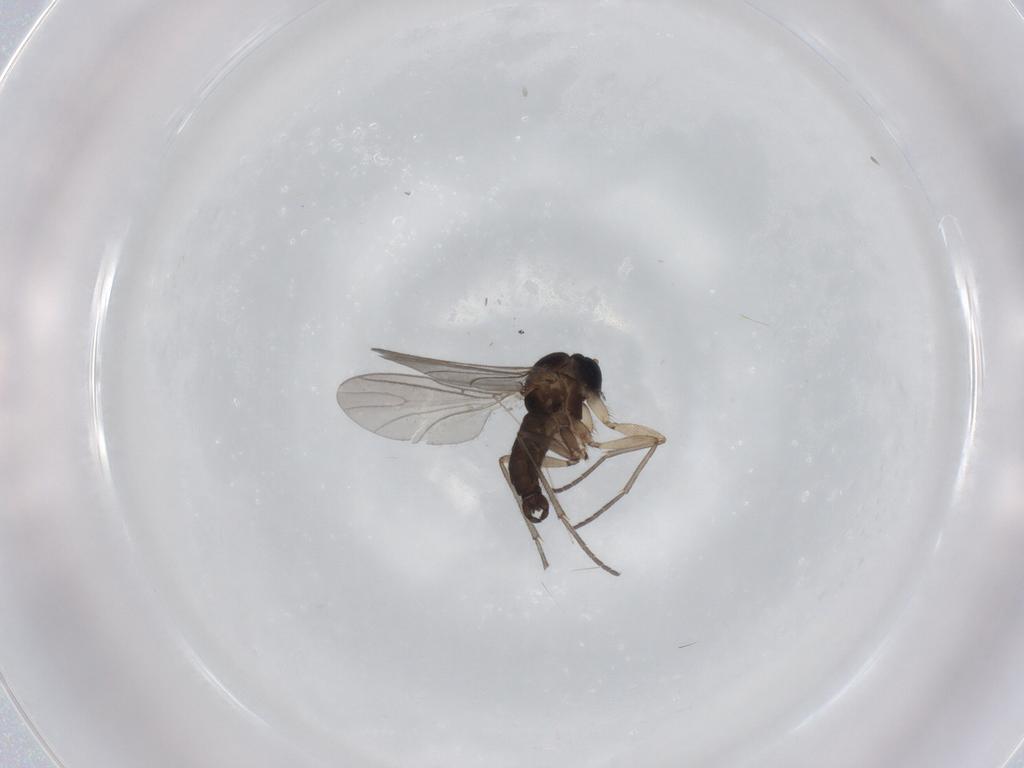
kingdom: Animalia
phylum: Arthropoda
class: Insecta
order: Diptera
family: Sciaridae
